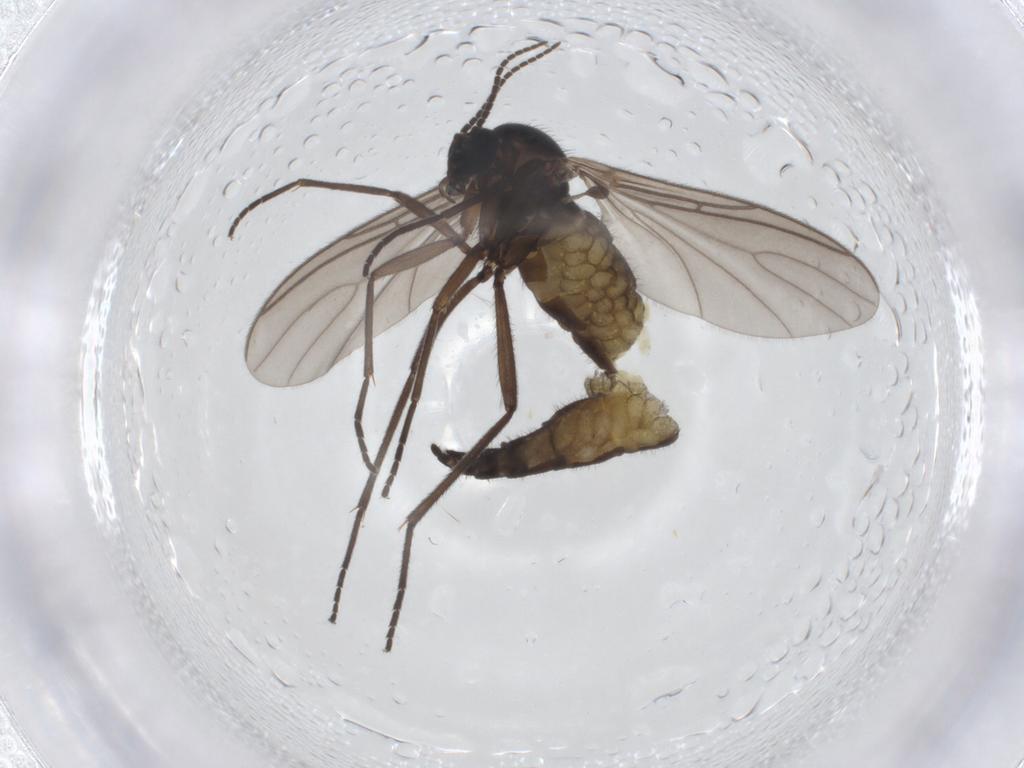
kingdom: Animalia
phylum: Arthropoda
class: Insecta
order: Diptera
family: Sciaridae
